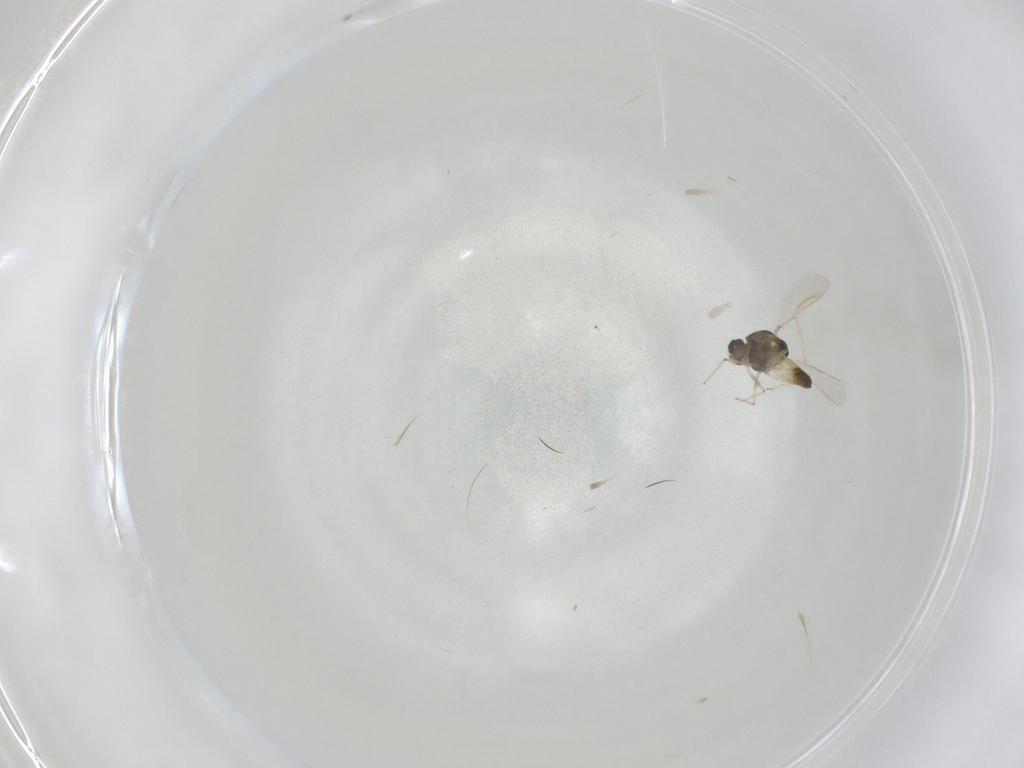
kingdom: Animalia
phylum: Arthropoda
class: Insecta
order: Diptera
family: Chironomidae
